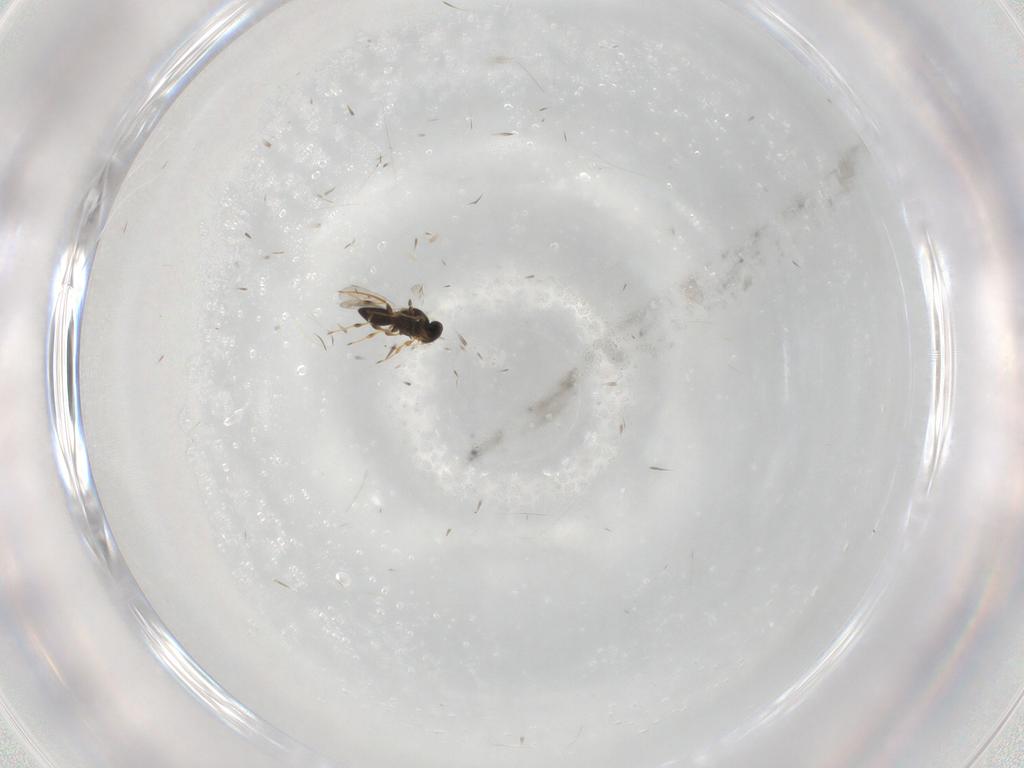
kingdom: Animalia
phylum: Arthropoda
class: Insecta
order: Hymenoptera
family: Platygastridae
